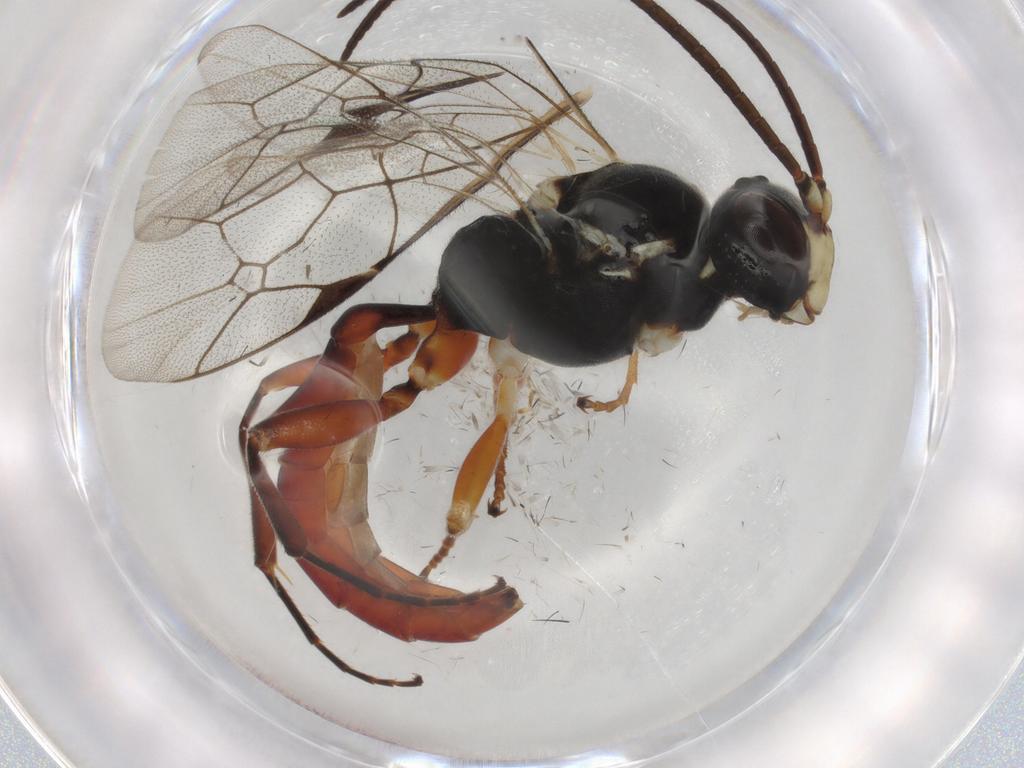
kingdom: Animalia
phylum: Arthropoda
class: Insecta
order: Hymenoptera
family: Ichneumonidae
